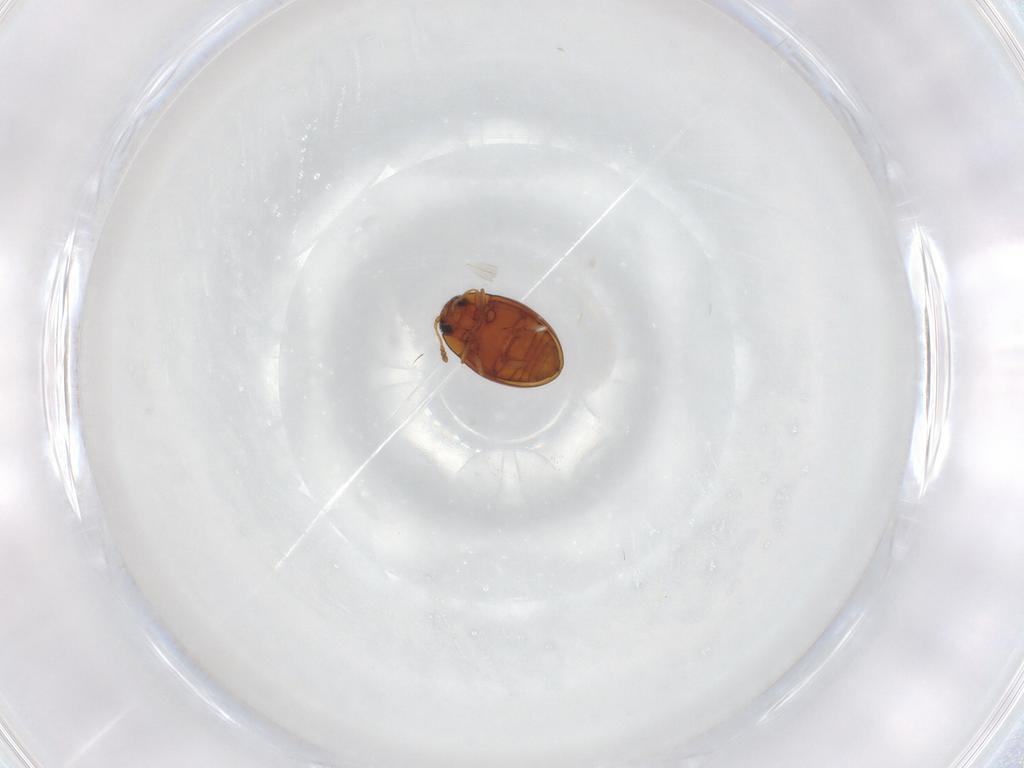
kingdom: Animalia
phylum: Arthropoda
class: Insecta
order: Coleoptera
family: Cryptophagidae
